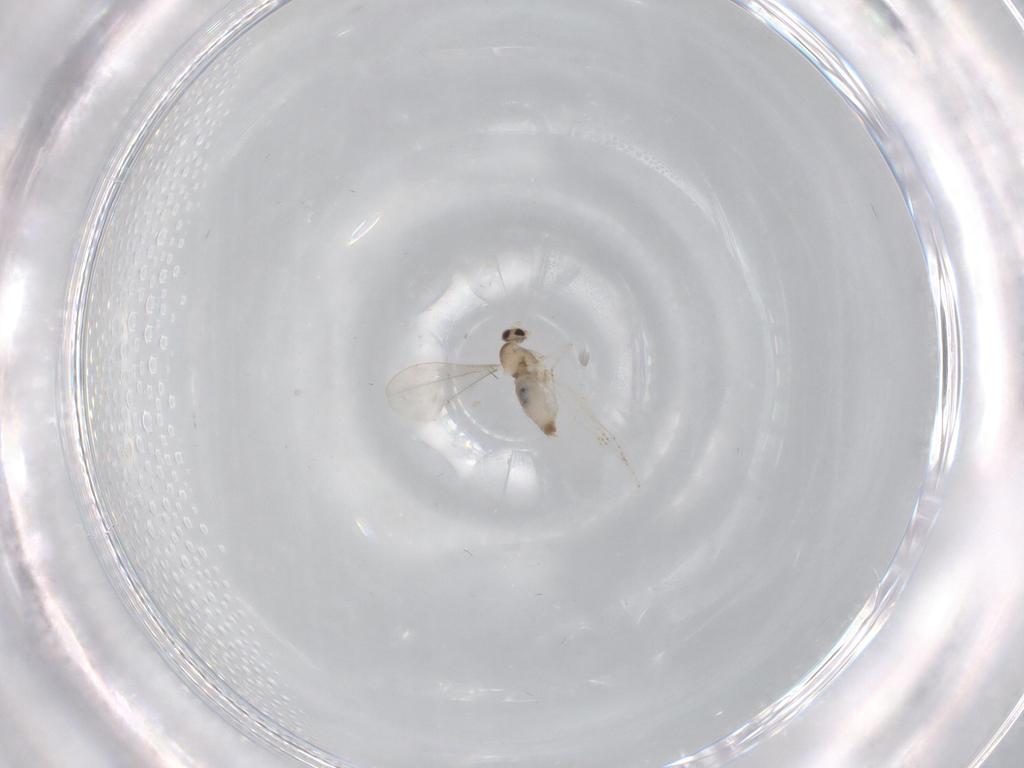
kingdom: Animalia
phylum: Arthropoda
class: Insecta
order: Diptera
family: Cecidomyiidae
